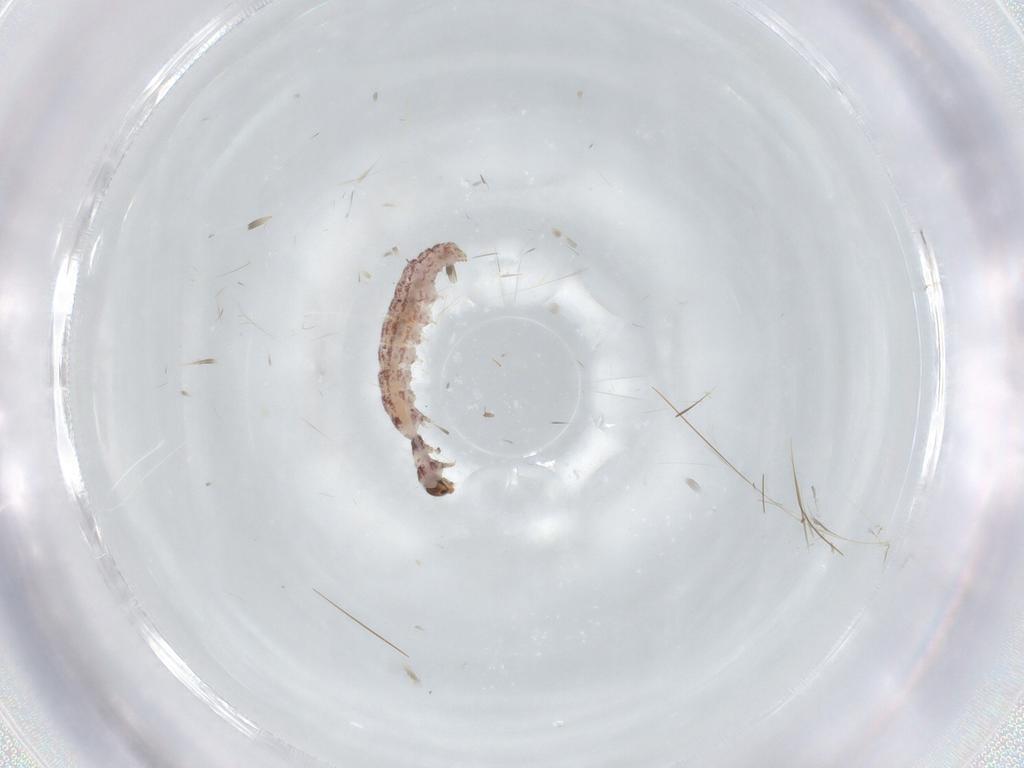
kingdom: Animalia
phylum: Arthropoda
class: Insecta
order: Lepidoptera
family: Gelechiidae
